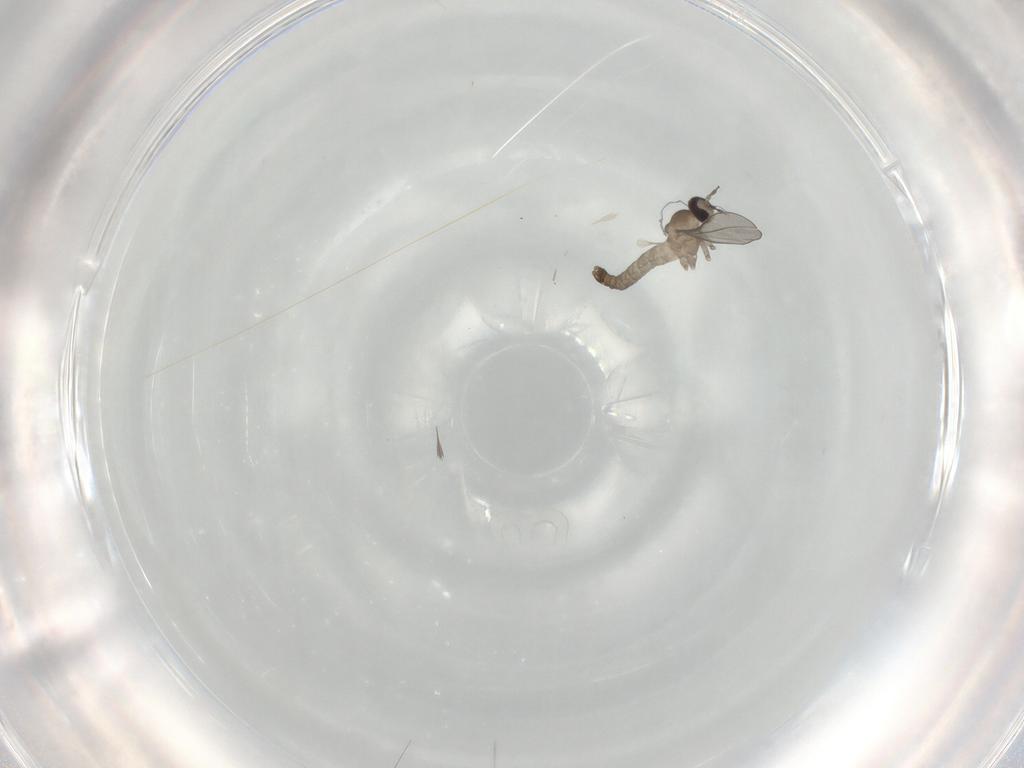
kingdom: Animalia
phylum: Arthropoda
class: Insecta
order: Diptera
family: Cecidomyiidae
